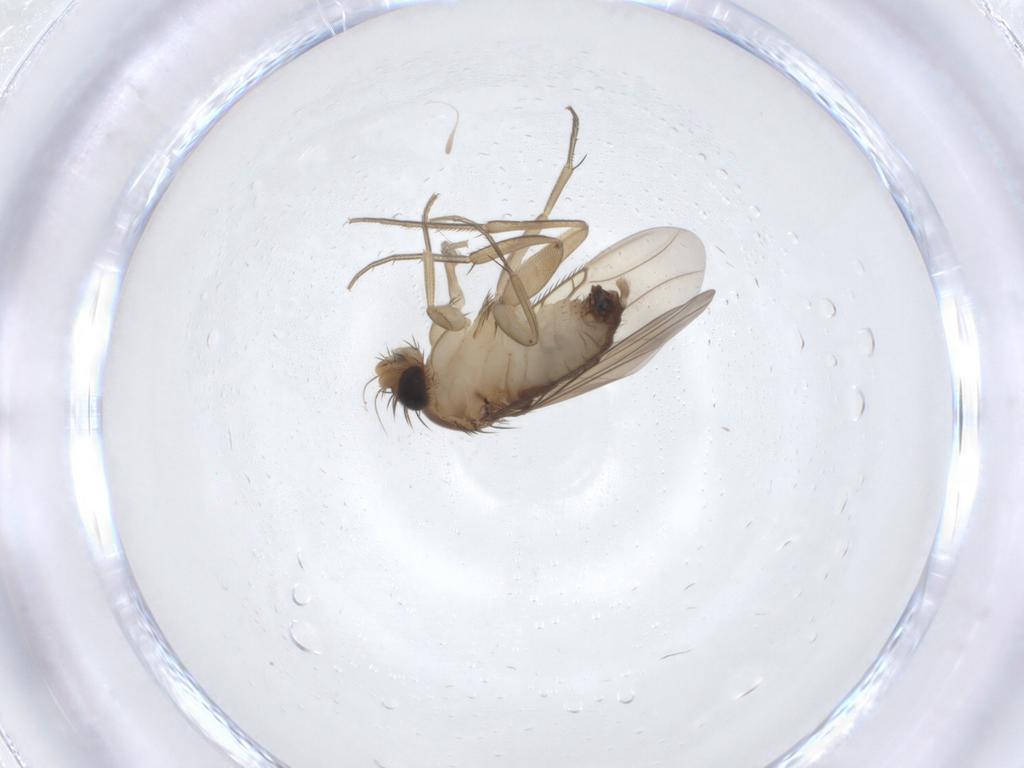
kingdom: Animalia
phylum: Arthropoda
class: Insecta
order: Diptera
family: Phoridae
